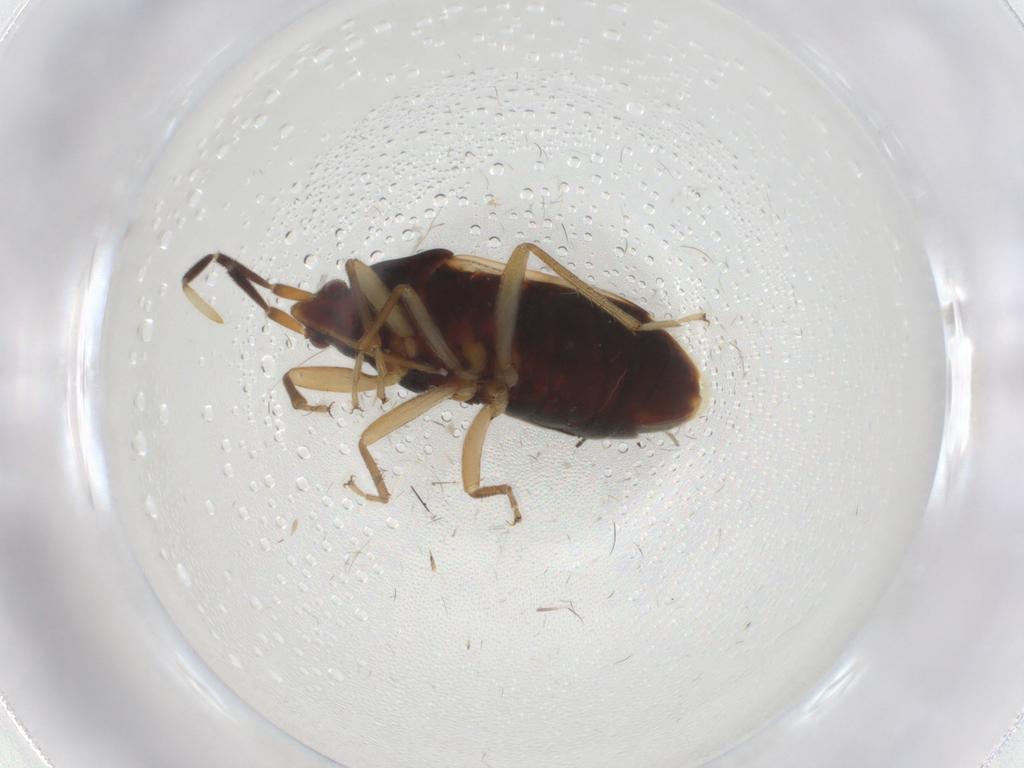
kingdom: Animalia
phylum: Arthropoda
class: Insecta
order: Hemiptera
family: Rhyparochromidae
